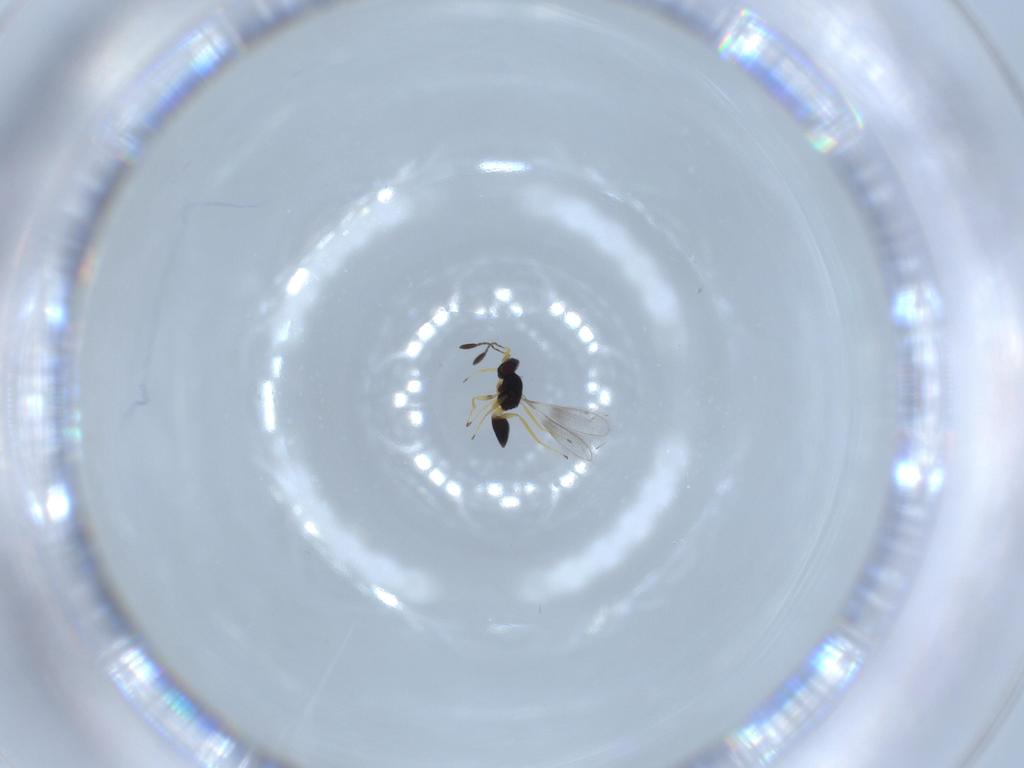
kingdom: Animalia
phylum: Arthropoda
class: Insecta
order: Hymenoptera
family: Mymaridae
